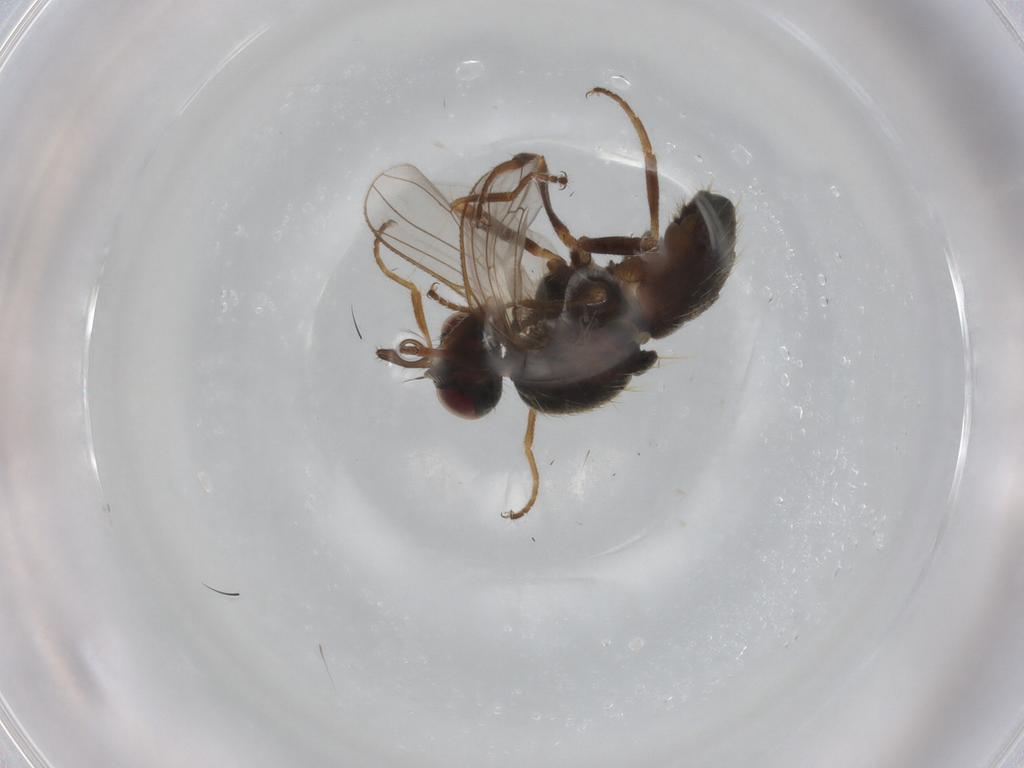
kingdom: Animalia
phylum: Arthropoda
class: Insecta
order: Diptera
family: Muscidae
